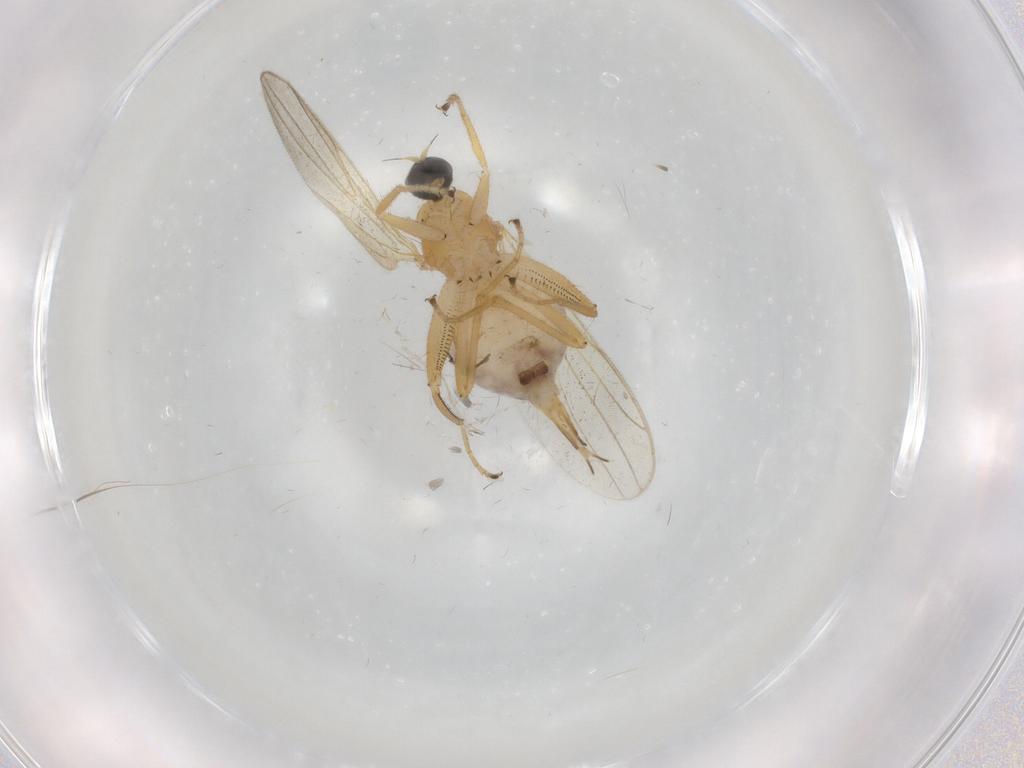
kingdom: Animalia
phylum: Arthropoda
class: Insecta
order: Diptera
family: Hybotidae
